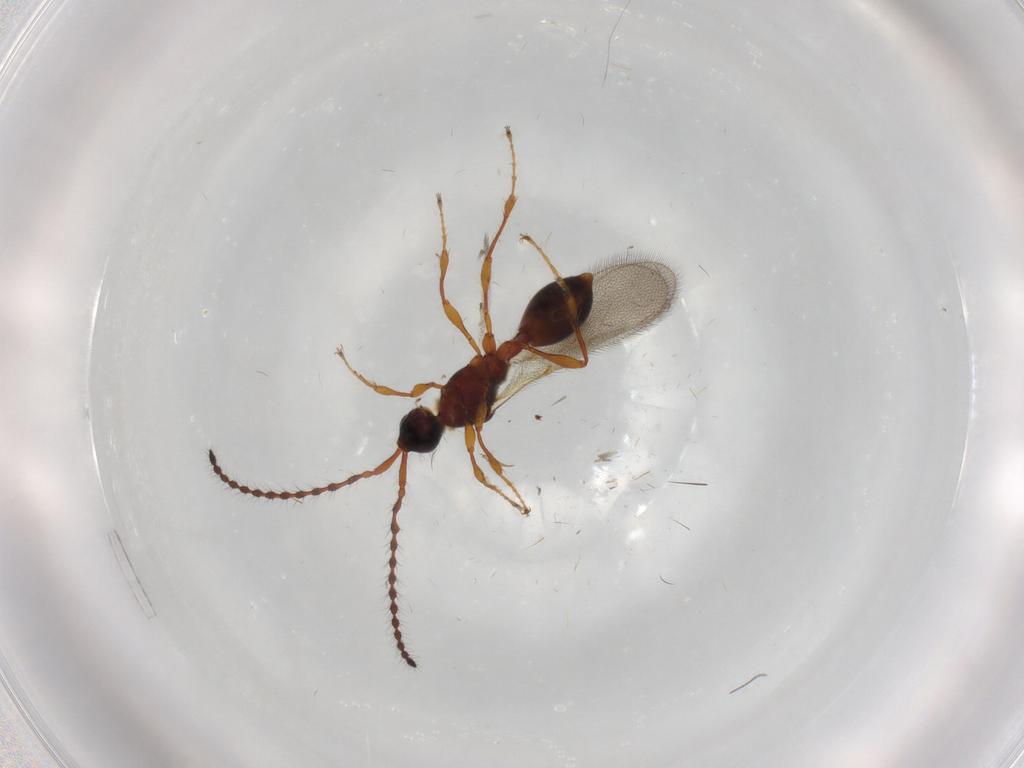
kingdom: Animalia
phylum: Arthropoda
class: Insecta
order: Hymenoptera
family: Diapriidae
